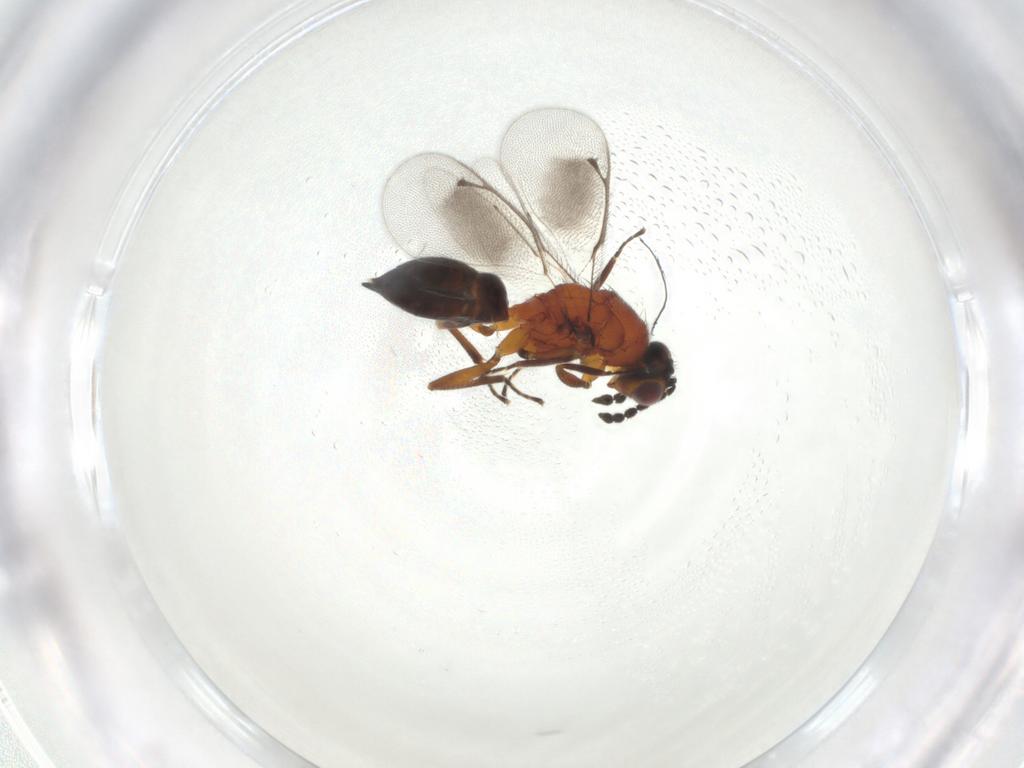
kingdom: Animalia
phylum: Arthropoda
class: Insecta
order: Hymenoptera
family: Eulophidae
